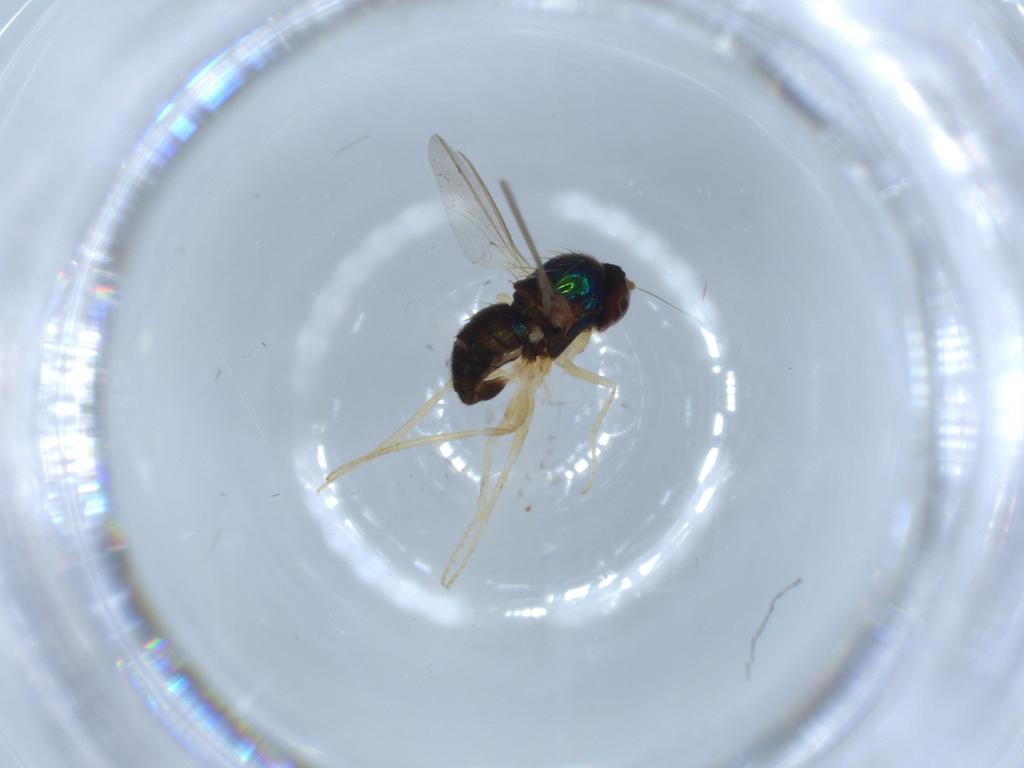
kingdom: Animalia
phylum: Arthropoda
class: Insecta
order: Diptera
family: Dolichopodidae
